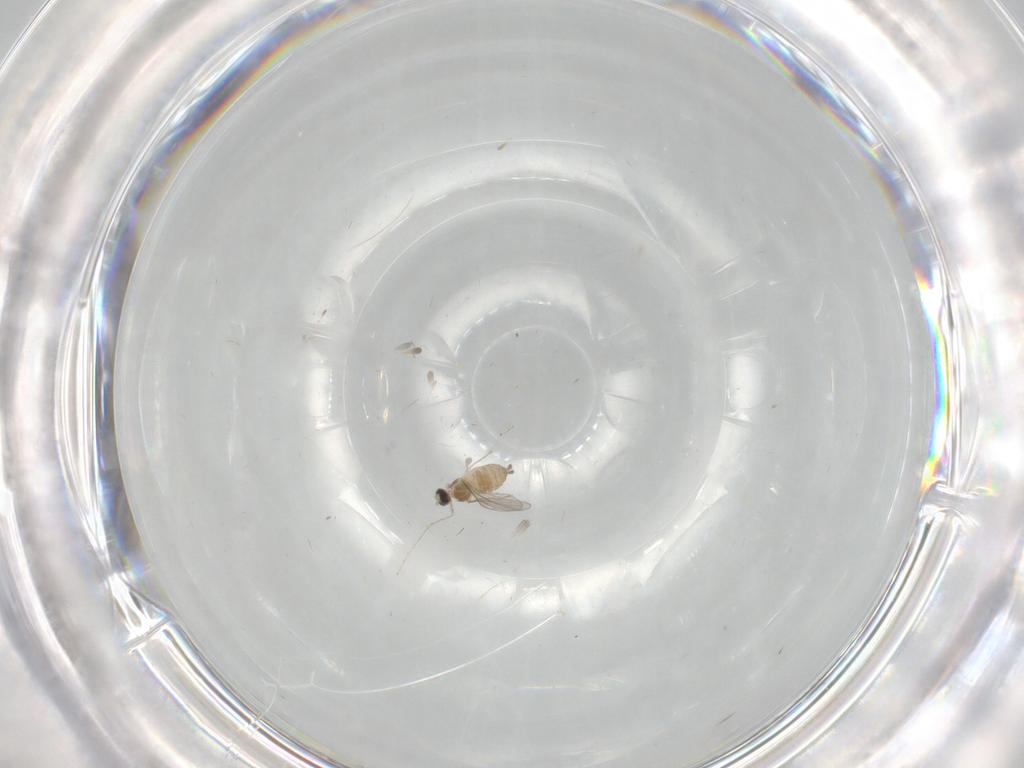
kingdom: Animalia
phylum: Arthropoda
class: Insecta
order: Diptera
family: Cecidomyiidae
